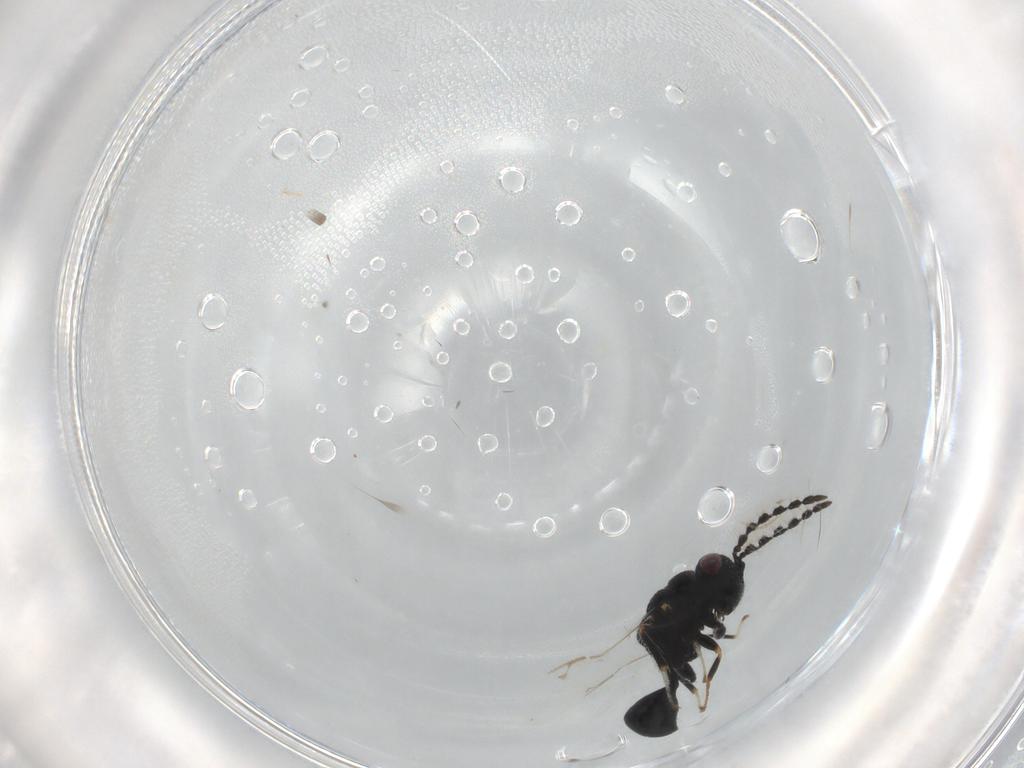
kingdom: Animalia
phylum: Arthropoda
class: Insecta
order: Hymenoptera
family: Eurytomidae
